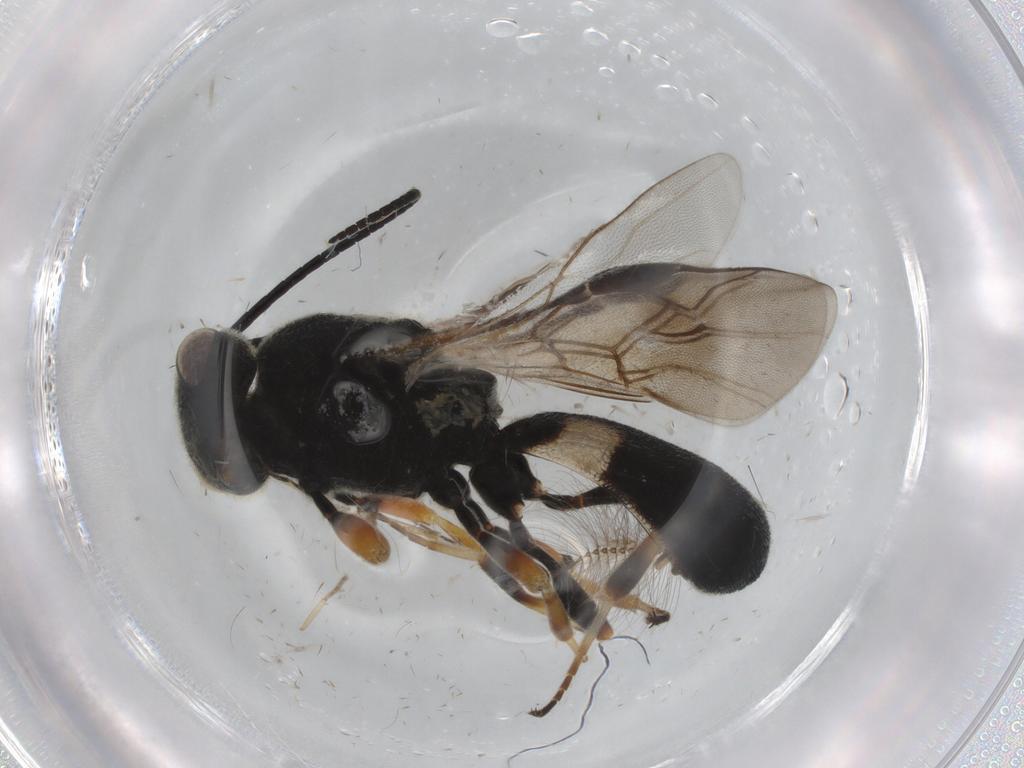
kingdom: Animalia
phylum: Arthropoda
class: Insecta
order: Hymenoptera
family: Braconidae
